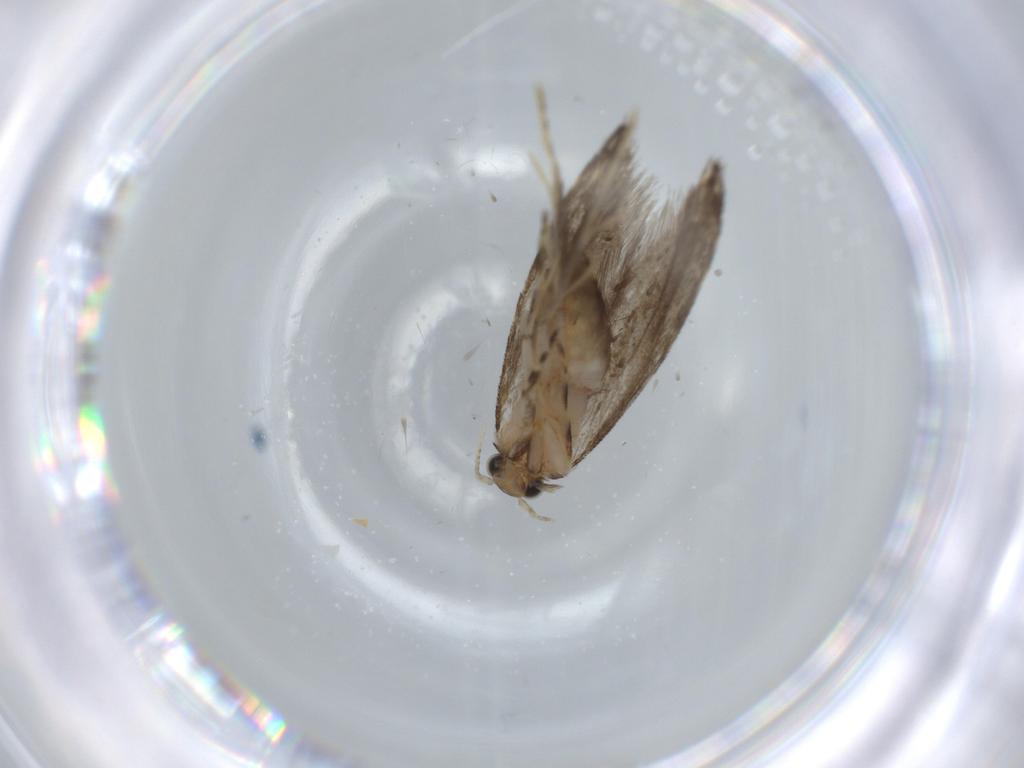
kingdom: Animalia
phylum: Arthropoda
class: Insecta
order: Lepidoptera
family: Tineidae
